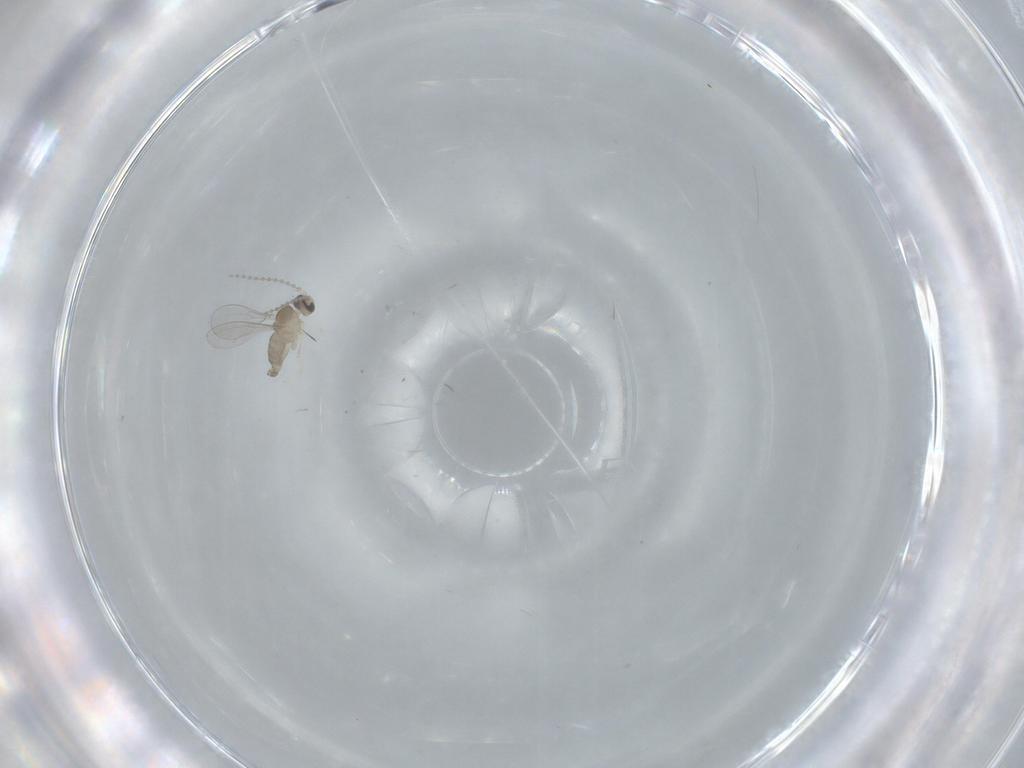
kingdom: Animalia
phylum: Arthropoda
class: Insecta
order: Diptera
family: Cecidomyiidae
